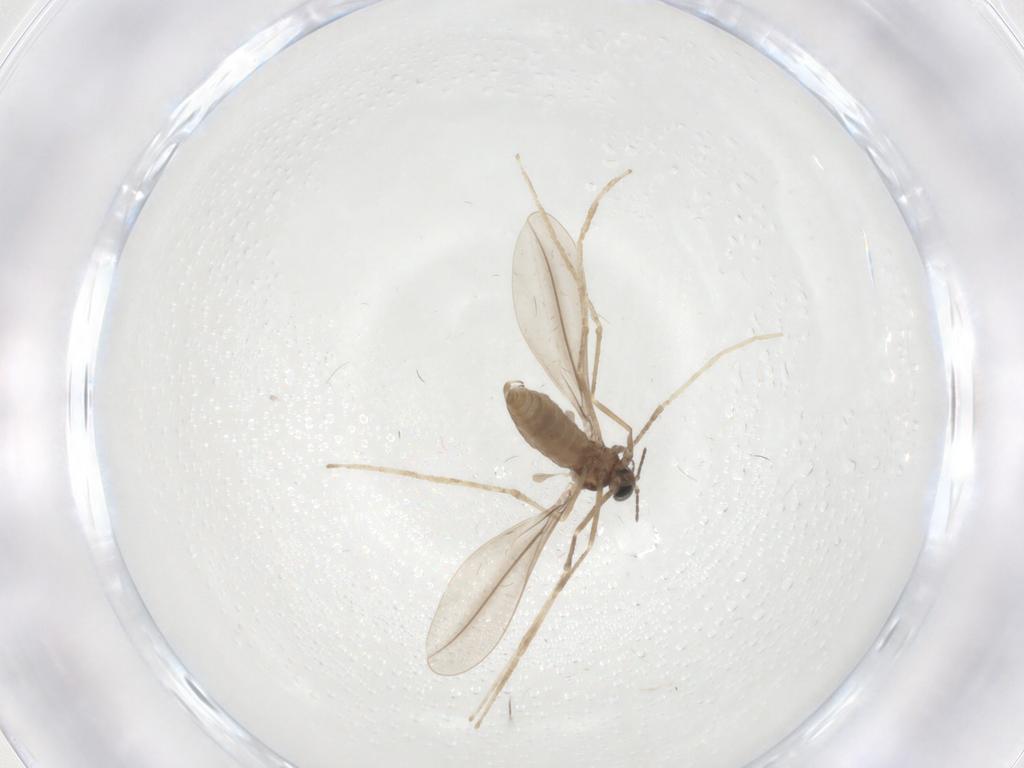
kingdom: Animalia
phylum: Arthropoda
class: Insecta
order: Diptera
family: Cecidomyiidae
